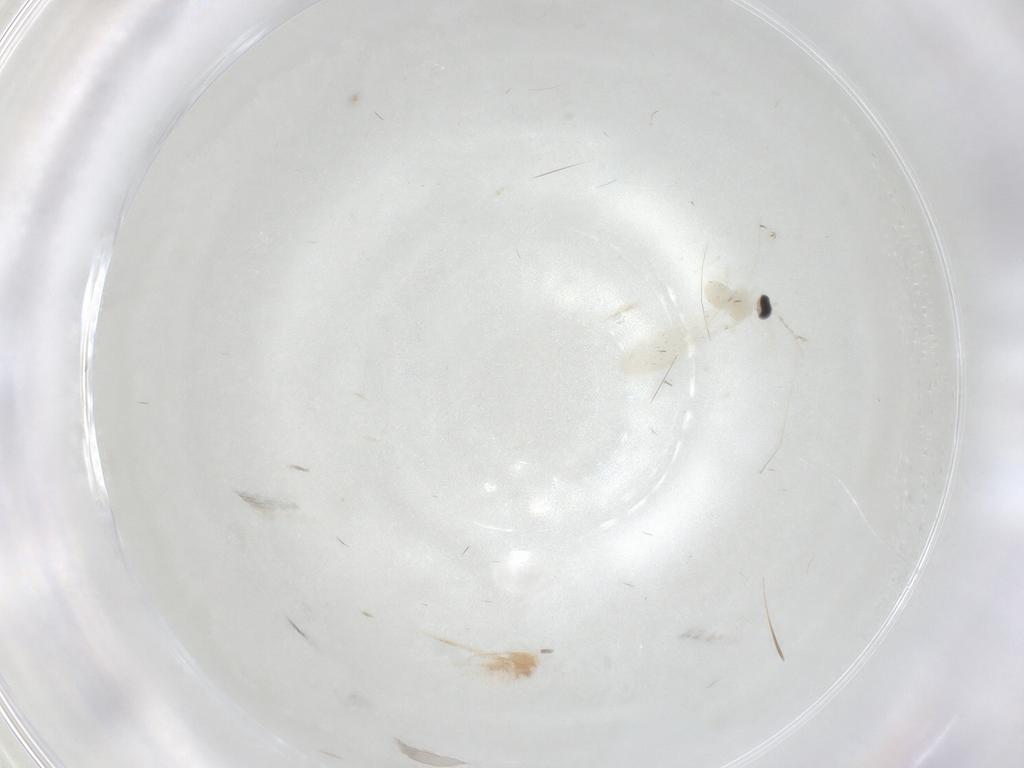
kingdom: Animalia
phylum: Arthropoda
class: Insecta
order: Diptera
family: Cecidomyiidae
